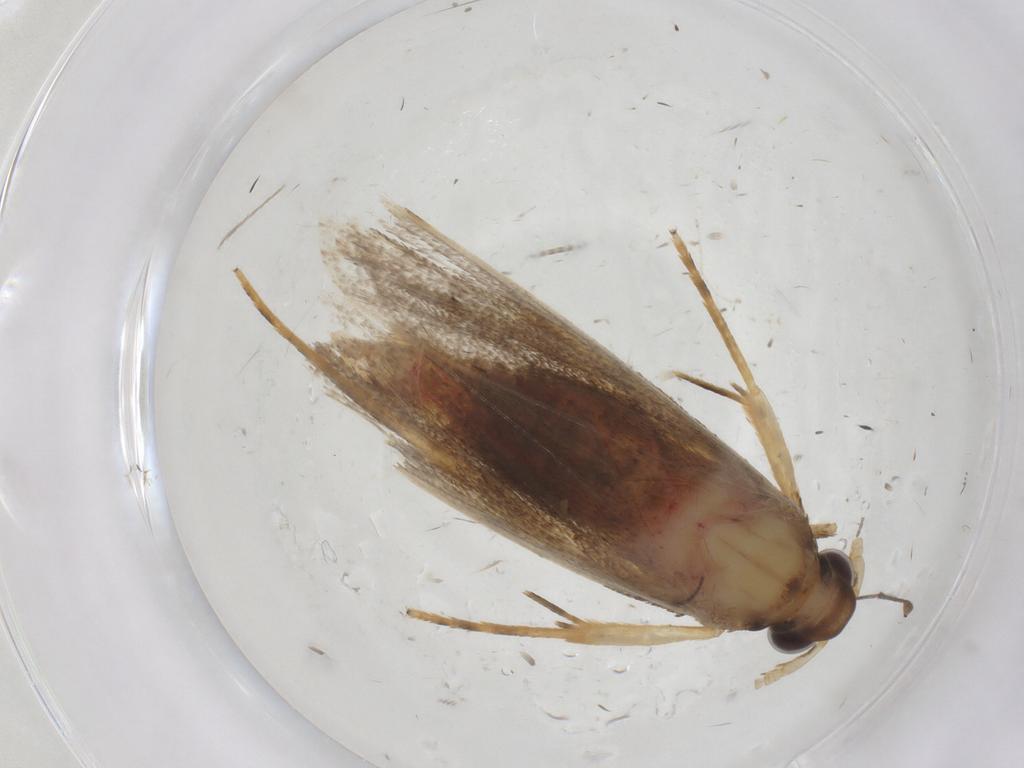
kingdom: Animalia
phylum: Arthropoda
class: Insecta
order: Lepidoptera
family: Lecithoceridae
